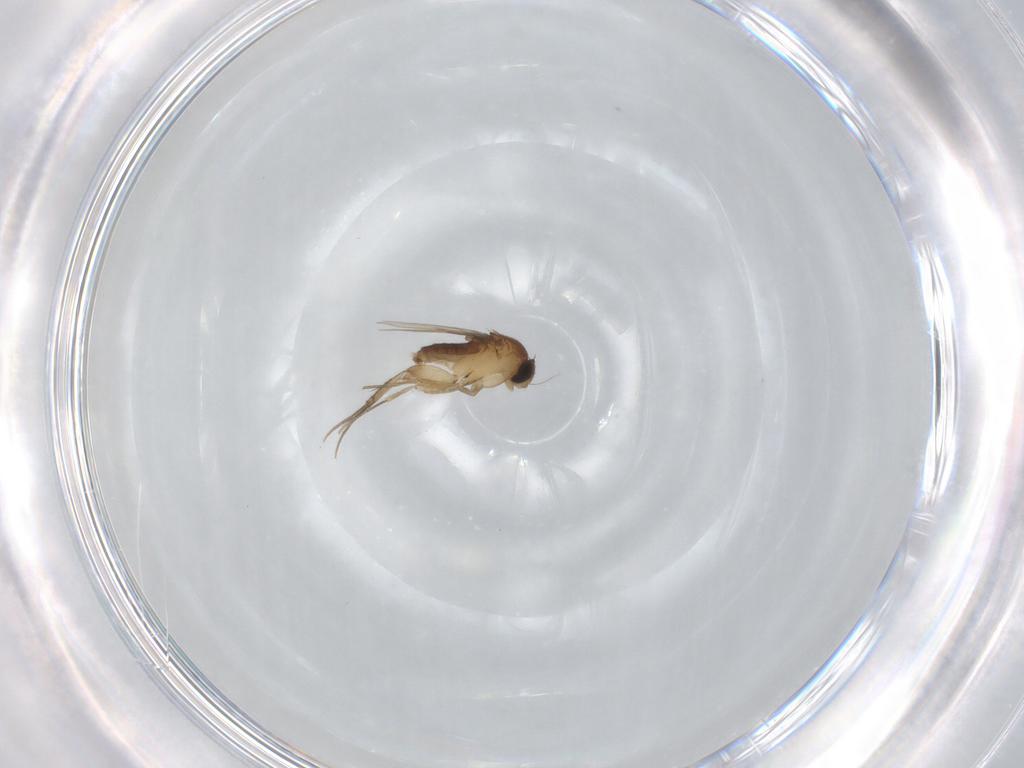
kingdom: Animalia
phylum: Arthropoda
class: Insecta
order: Diptera
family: Phoridae
